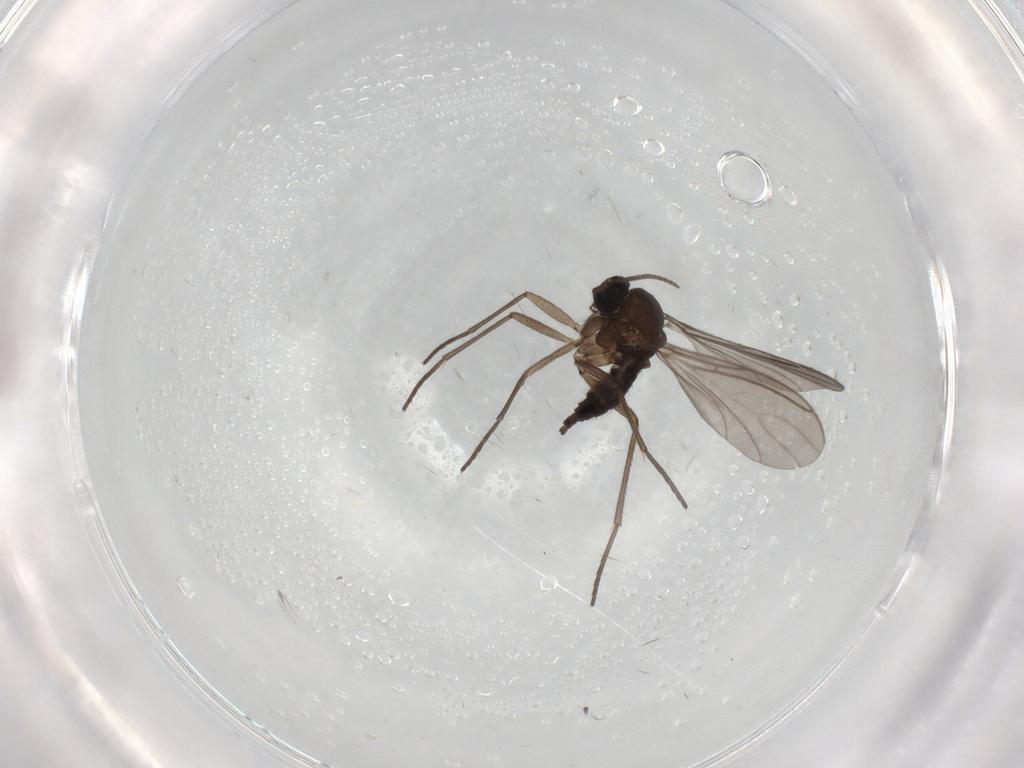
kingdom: Animalia
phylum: Arthropoda
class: Insecta
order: Diptera
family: Sciaridae
